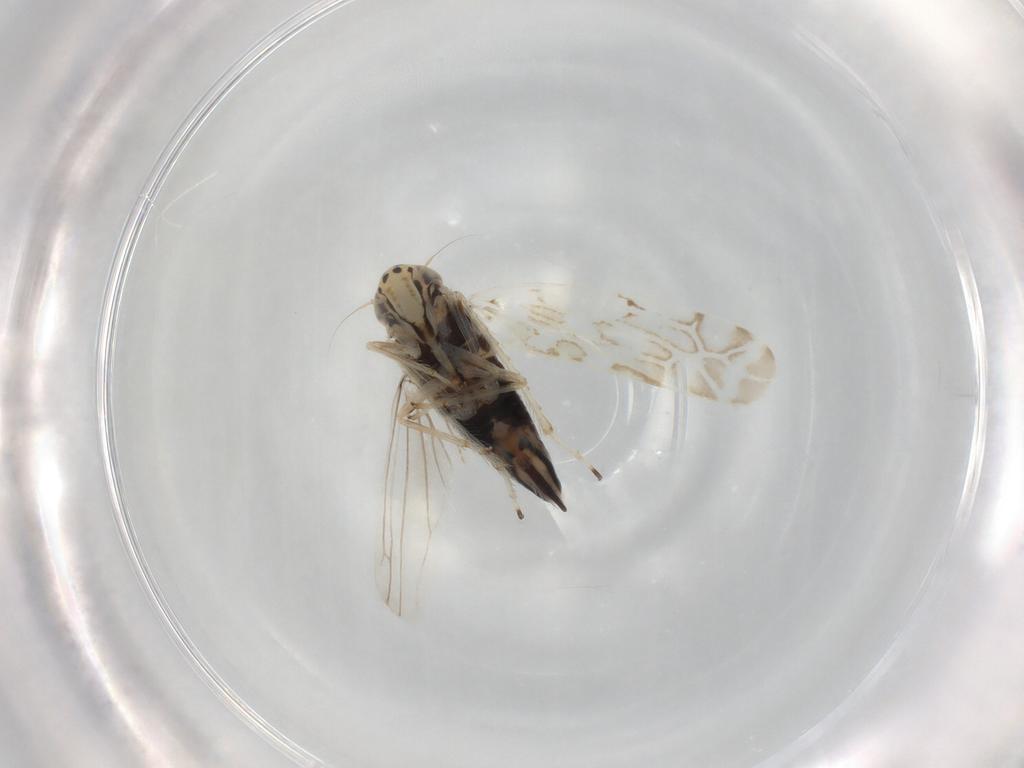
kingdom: Animalia
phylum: Arthropoda
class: Insecta
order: Hemiptera
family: Cicadellidae
